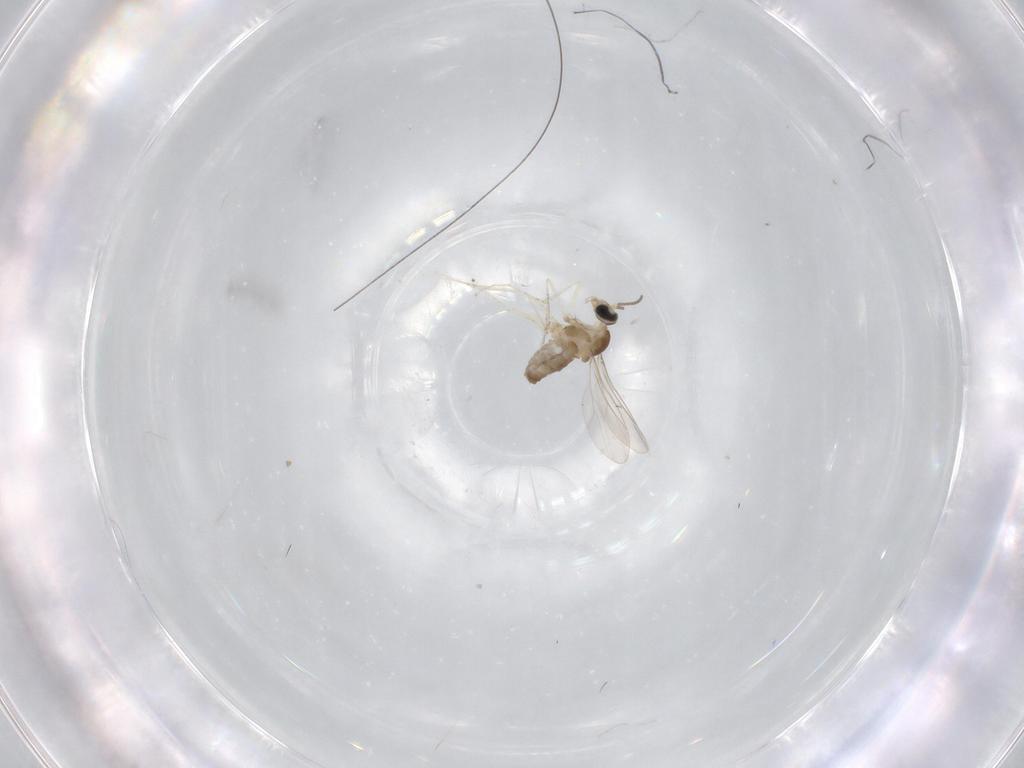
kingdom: Animalia
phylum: Arthropoda
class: Insecta
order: Diptera
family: Cecidomyiidae
